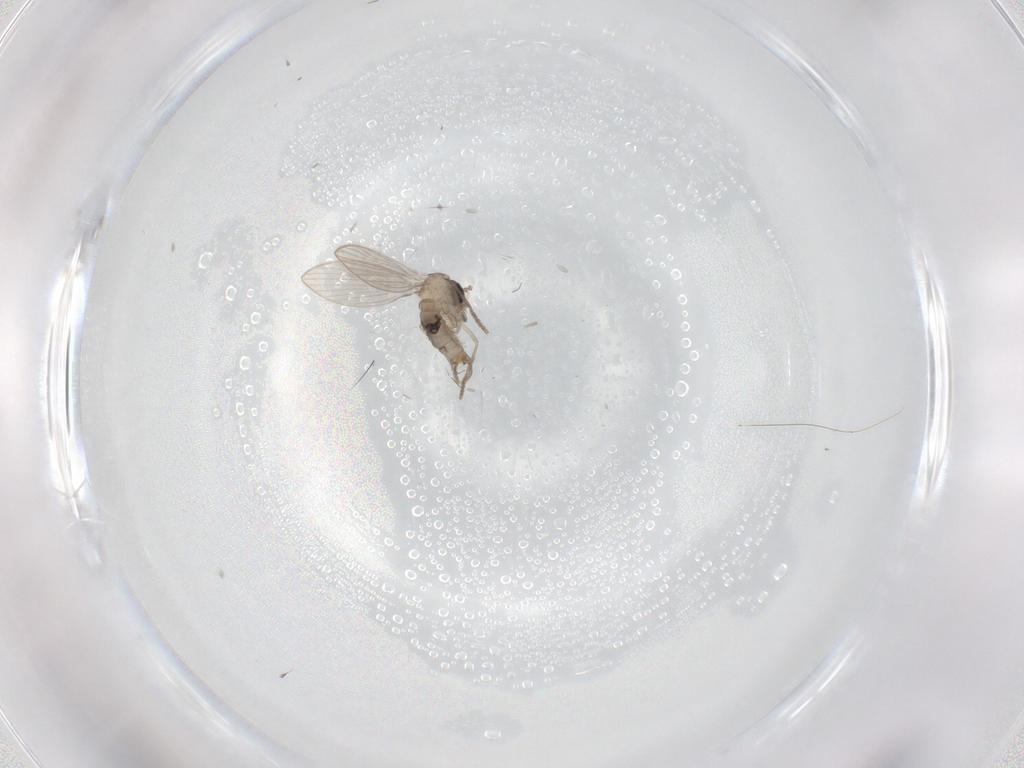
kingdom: Animalia
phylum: Arthropoda
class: Insecta
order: Diptera
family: Psychodidae
